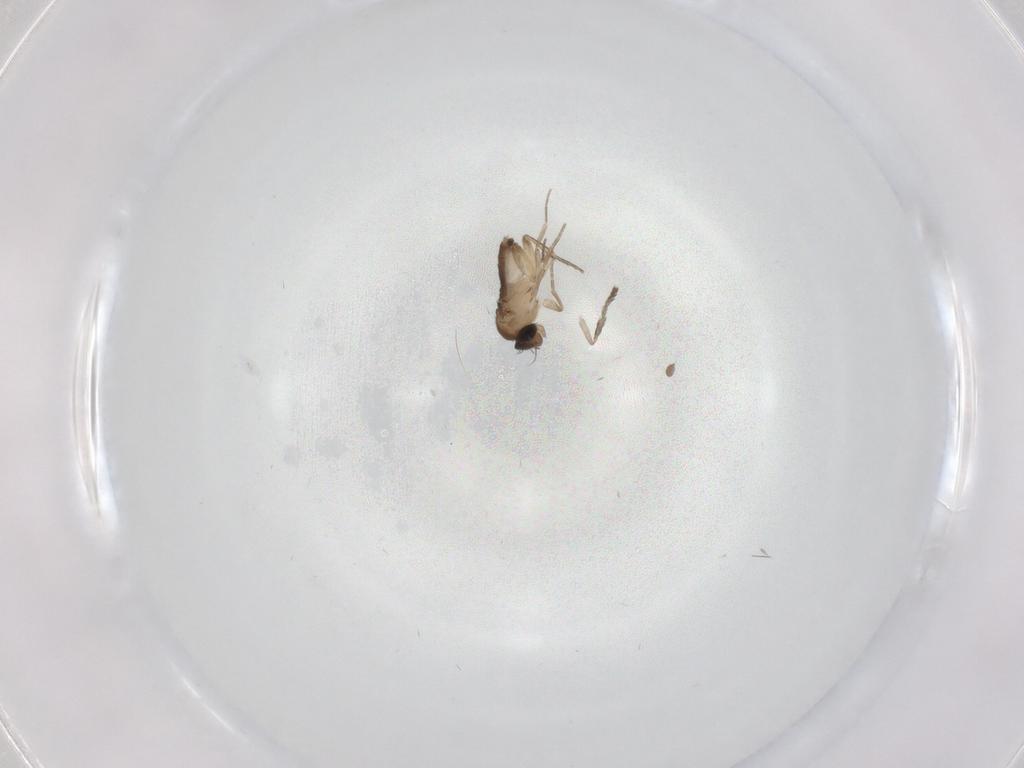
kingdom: Animalia
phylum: Arthropoda
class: Insecta
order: Diptera
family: Phoridae
